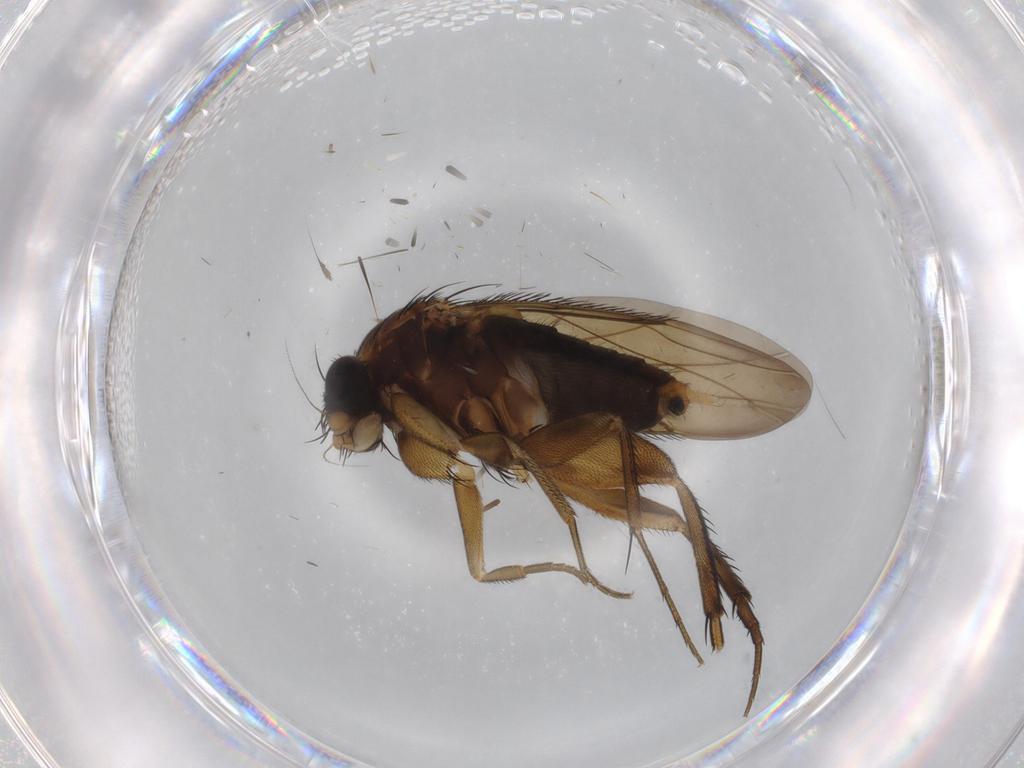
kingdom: Animalia
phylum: Arthropoda
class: Insecta
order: Diptera
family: Phoridae
